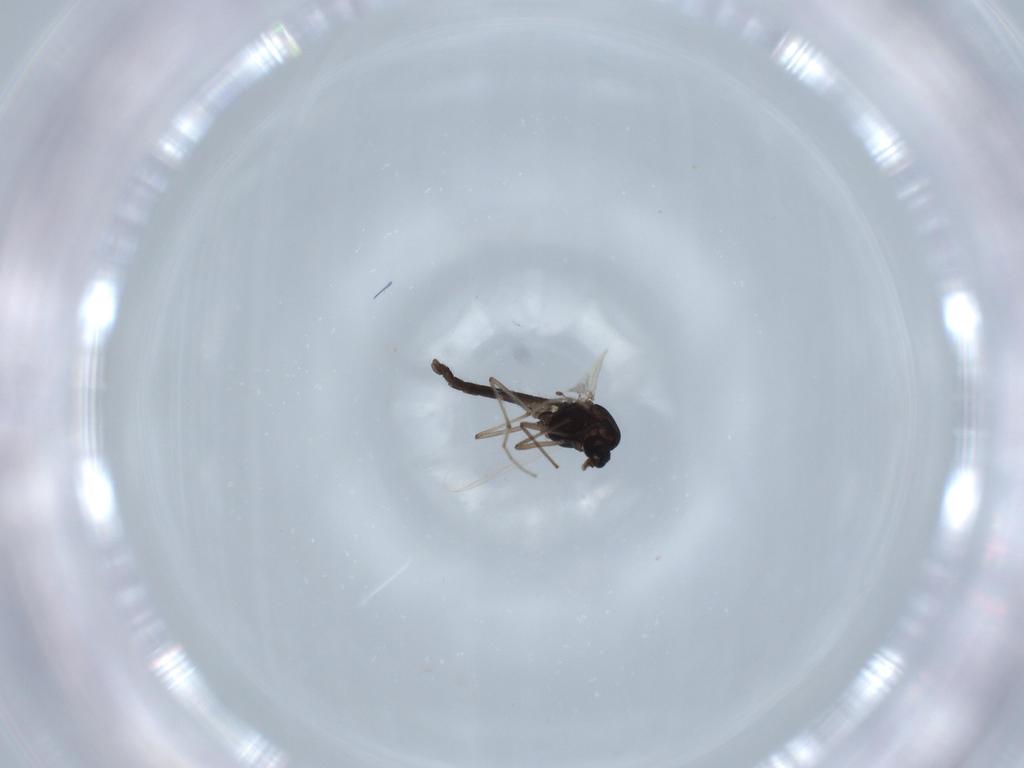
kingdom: Animalia
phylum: Arthropoda
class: Insecta
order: Diptera
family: Chironomidae
